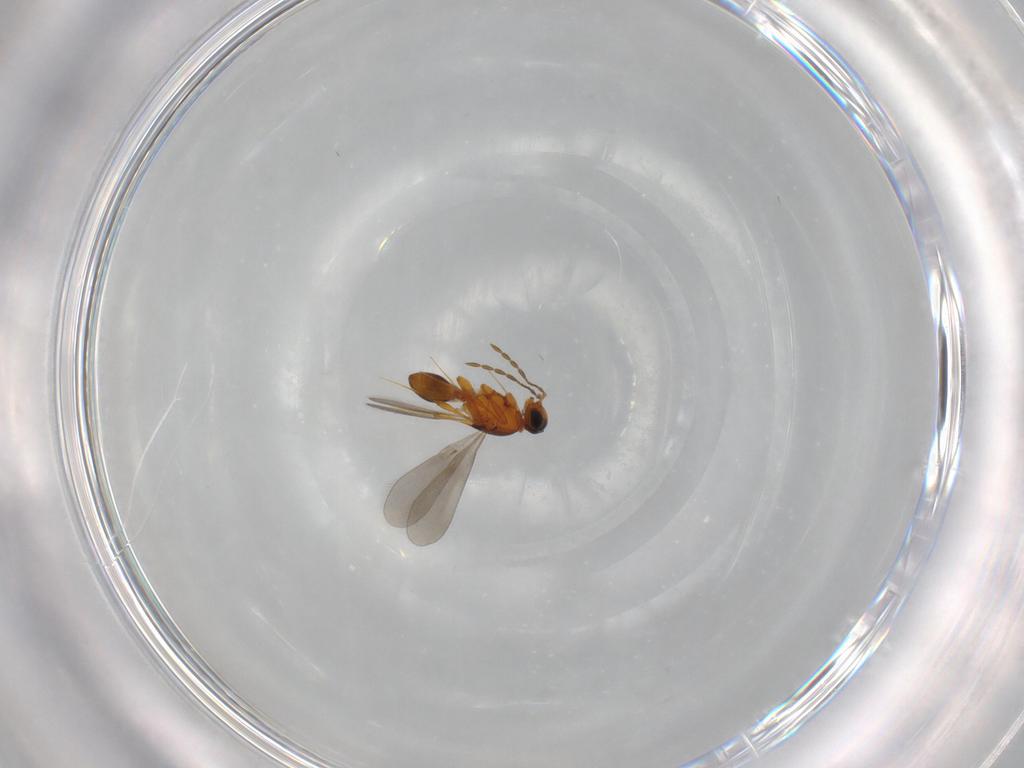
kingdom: Animalia
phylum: Arthropoda
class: Insecta
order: Hymenoptera
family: Platygastridae
